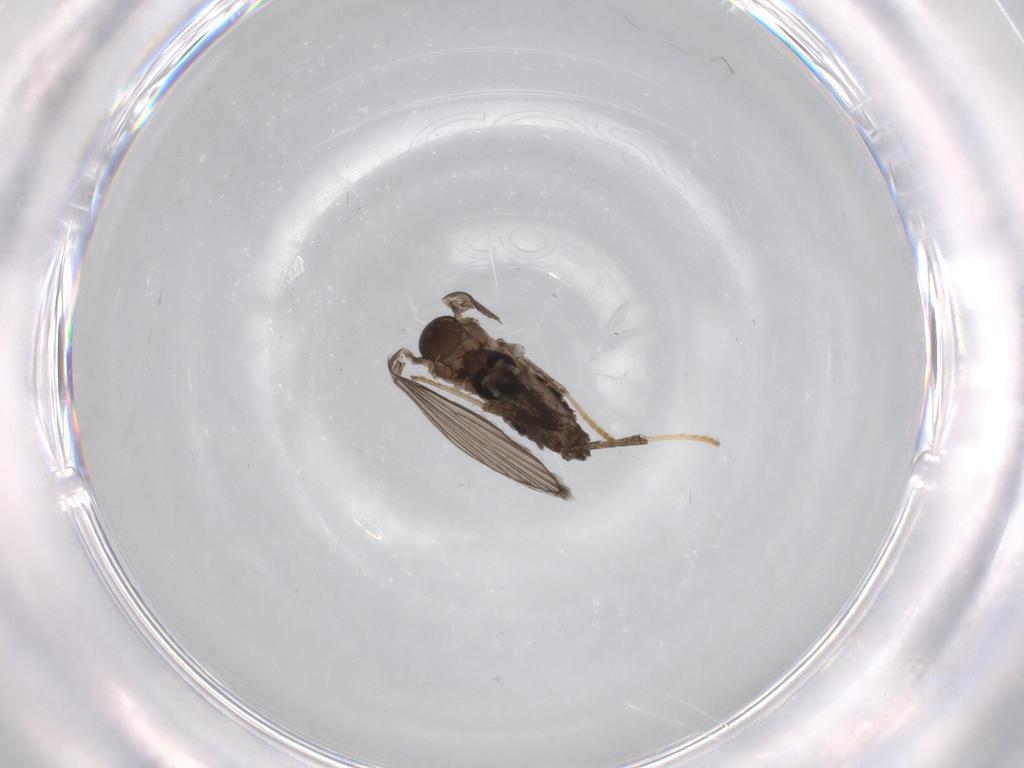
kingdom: Animalia
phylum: Arthropoda
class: Insecta
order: Diptera
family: Psychodidae
